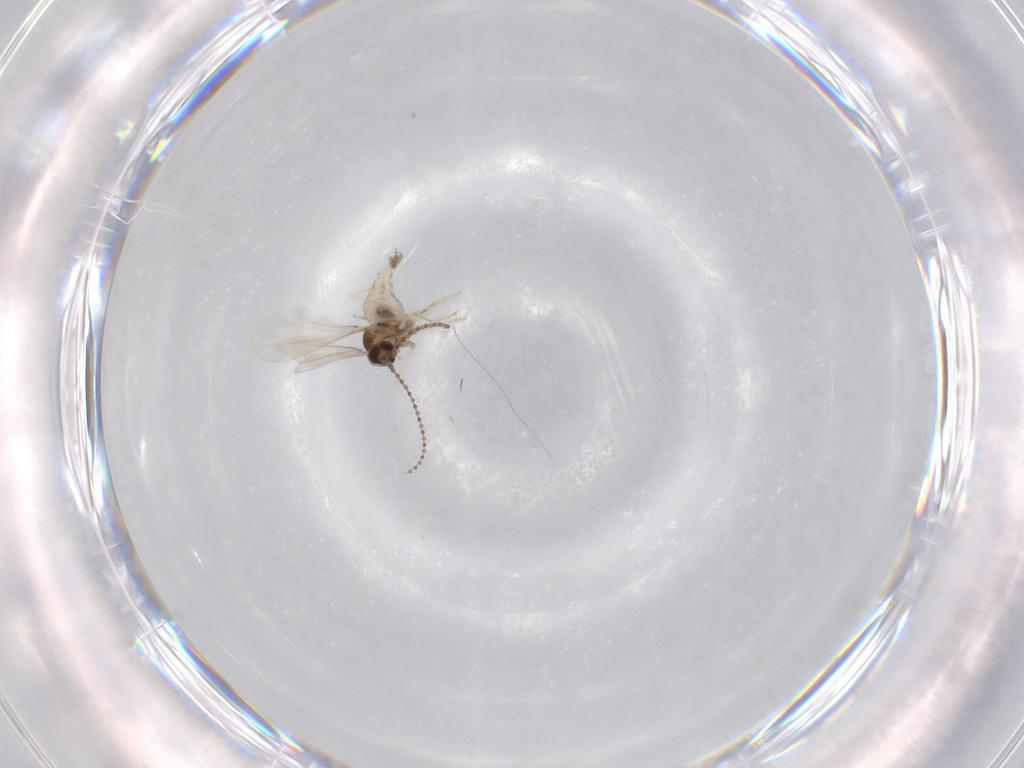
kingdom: Animalia
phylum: Arthropoda
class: Insecta
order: Diptera
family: Cecidomyiidae
